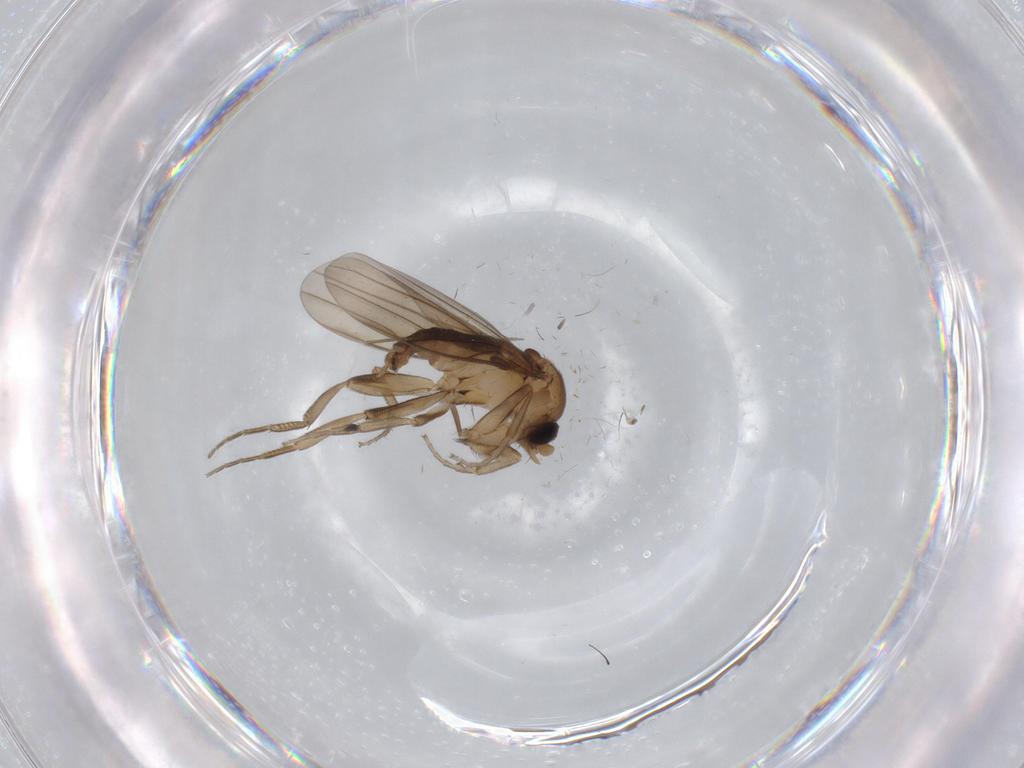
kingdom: Animalia
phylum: Arthropoda
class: Insecta
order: Diptera
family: Phoridae
